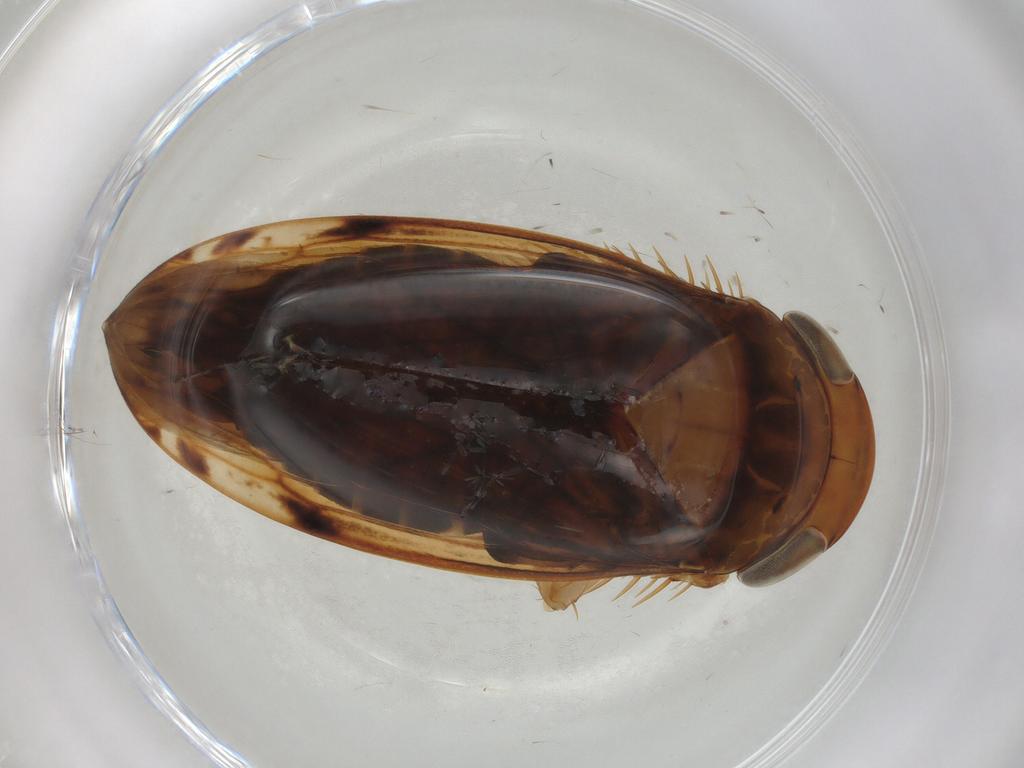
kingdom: Animalia
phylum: Arthropoda
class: Insecta
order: Hemiptera
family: Cicadellidae
